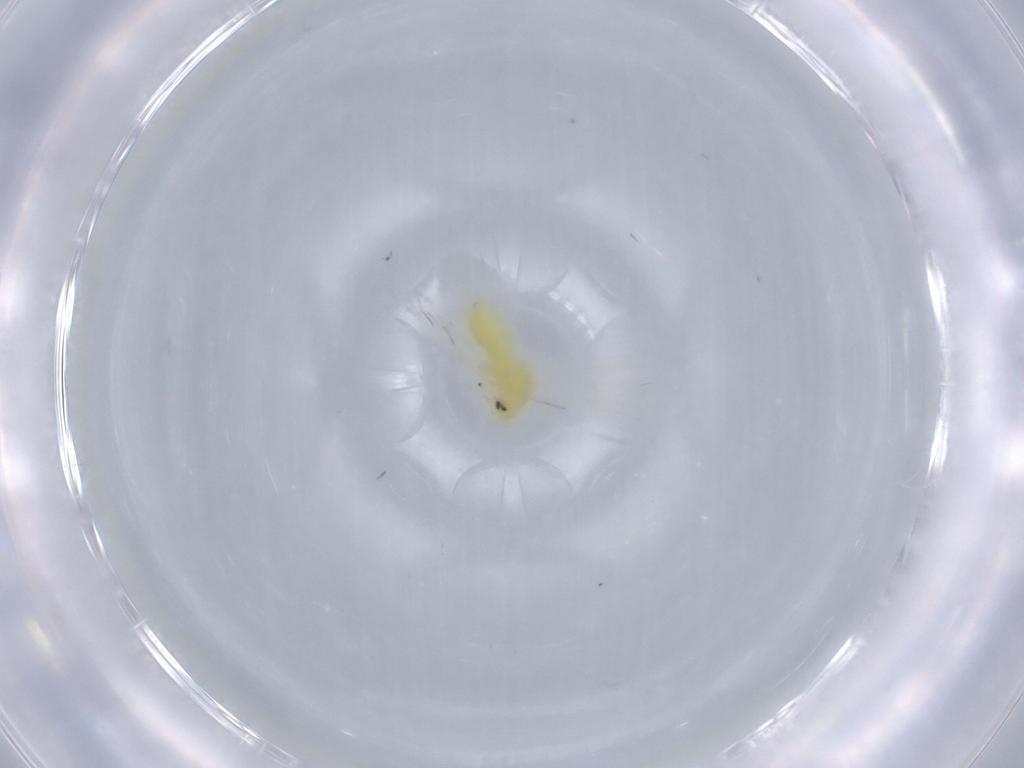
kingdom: Animalia
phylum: Arthropoda
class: Insecta
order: Hemiptera
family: Aleyrodidae
